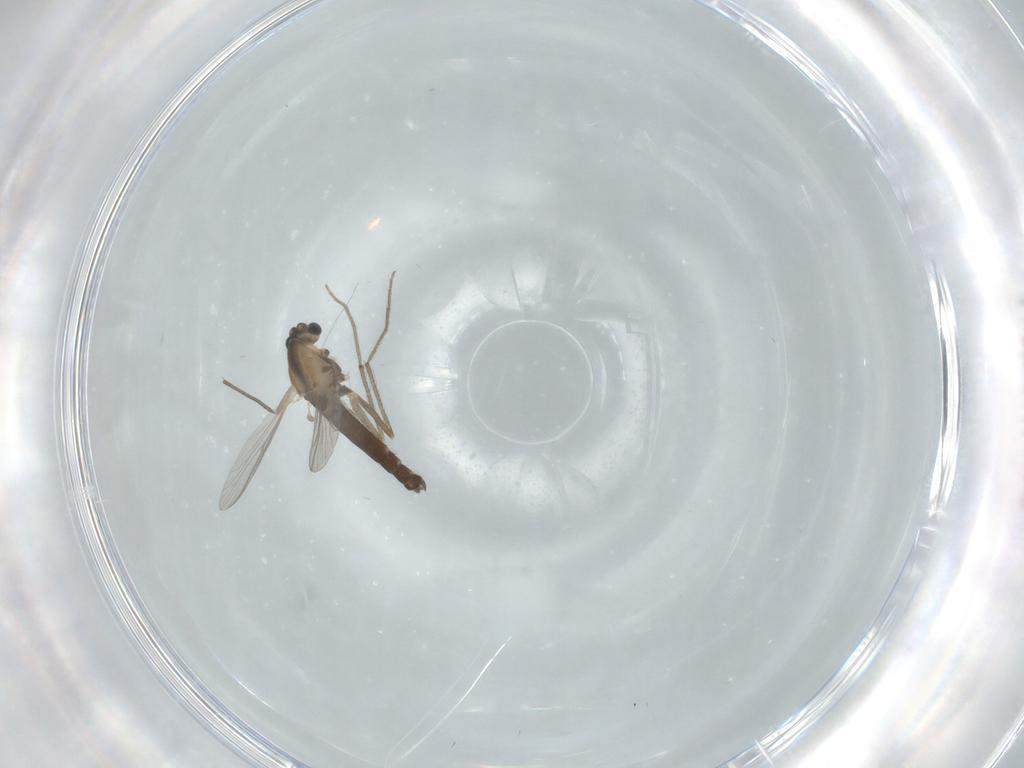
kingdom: Animalia
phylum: Arthropoda
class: Insecta
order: Diptera
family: Chironomidae
